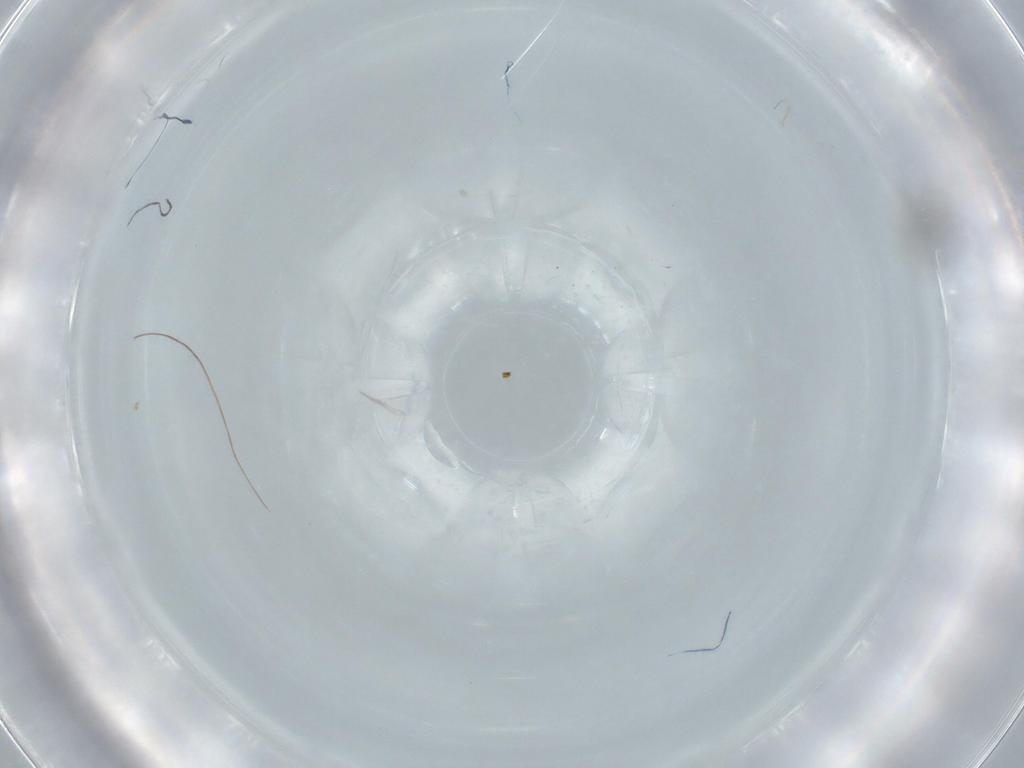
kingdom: Animalia
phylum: Arthropoda
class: Insecta
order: Orthoptera
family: Trigonidiidae
